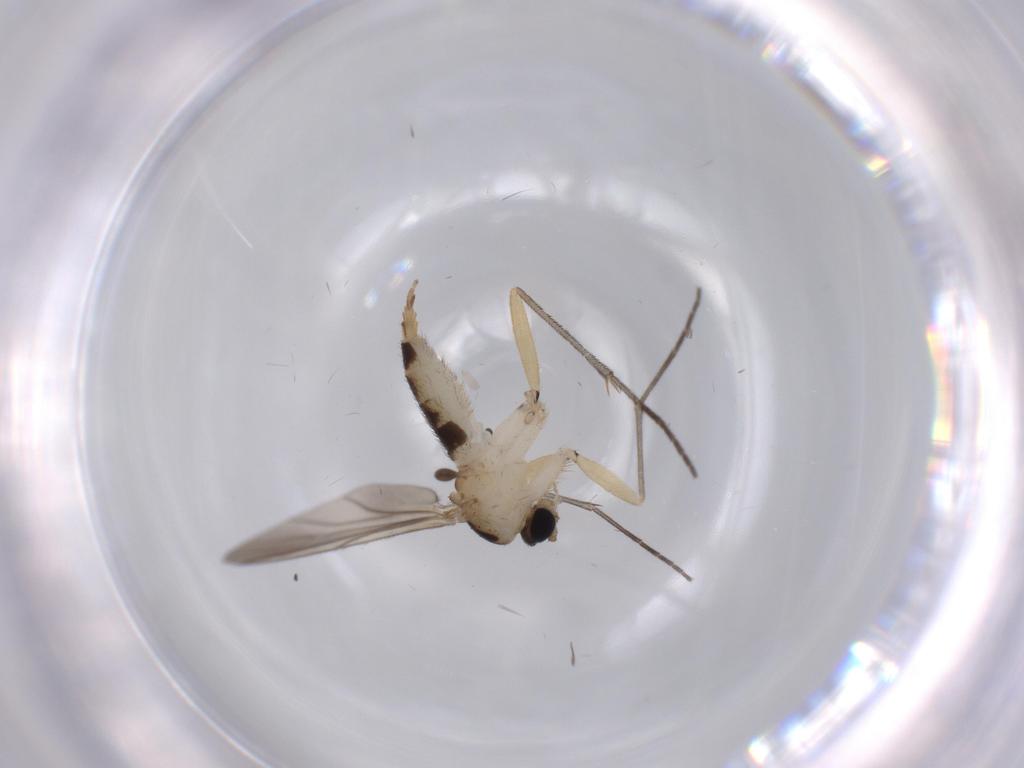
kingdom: Animalia
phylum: Arthropoda
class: Insecta
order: Diptera
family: Sciaridae
